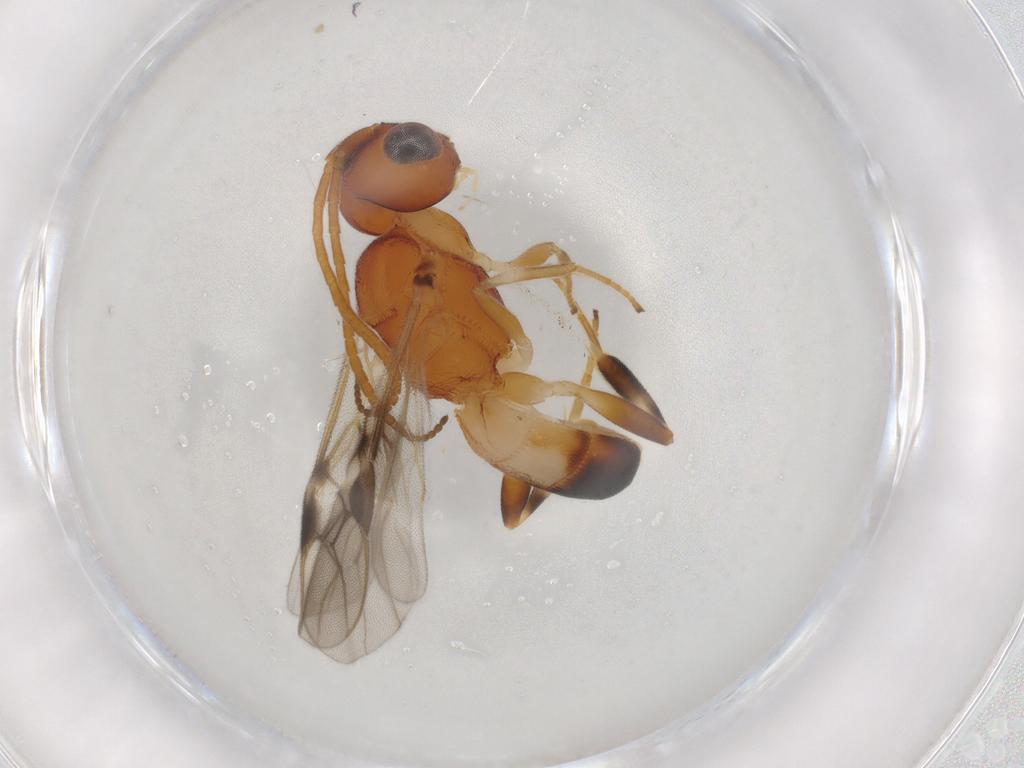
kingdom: Animalia
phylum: Arthropoda
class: Insecta
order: Hymenoptera
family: Braconidae
